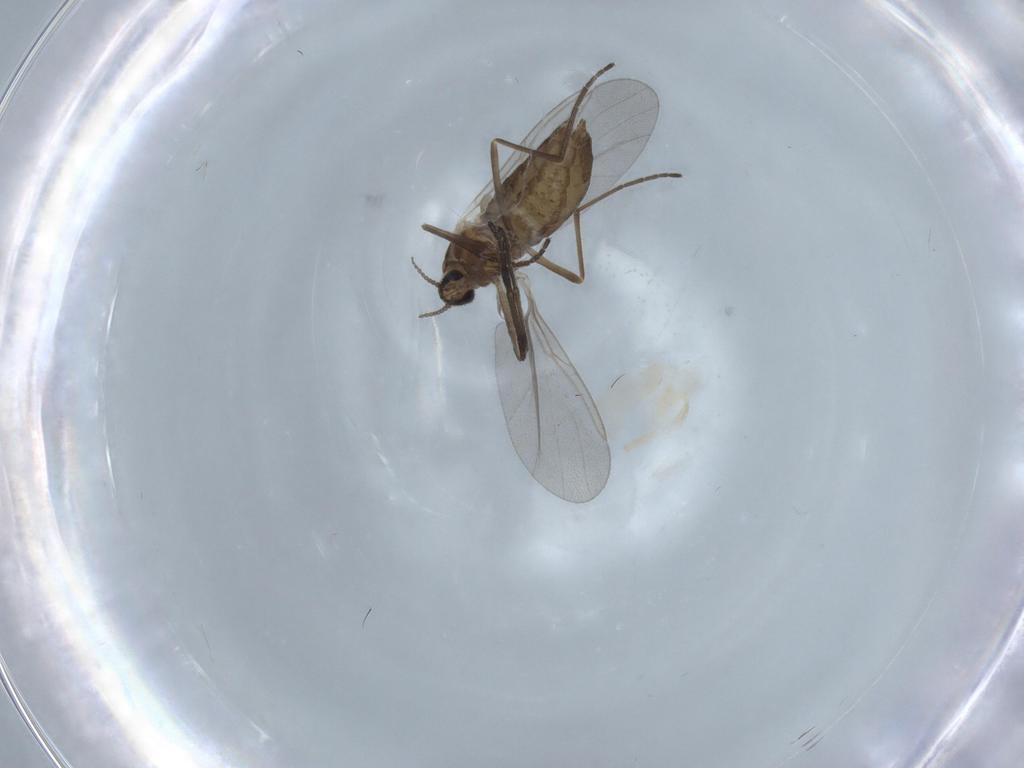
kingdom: Animalia
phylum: Arthropoda
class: Insecta
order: Diptera
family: Drosophilidae
